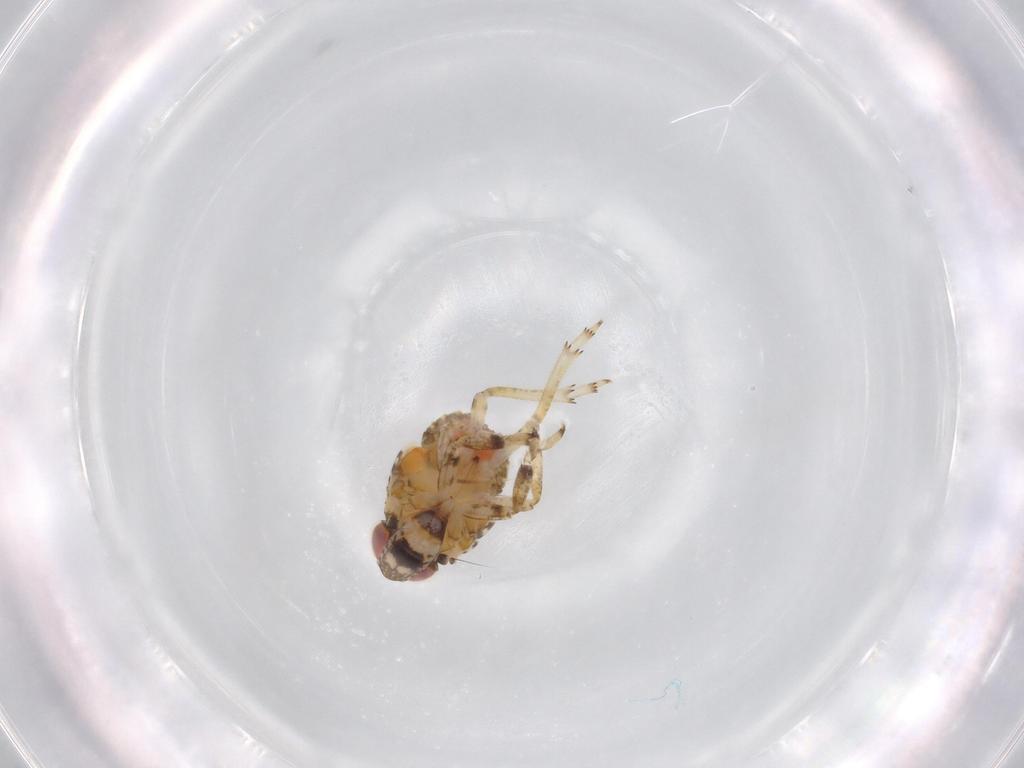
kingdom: Animalia
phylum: Arthropoda
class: Insecta
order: Hemiptera
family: Issidae
